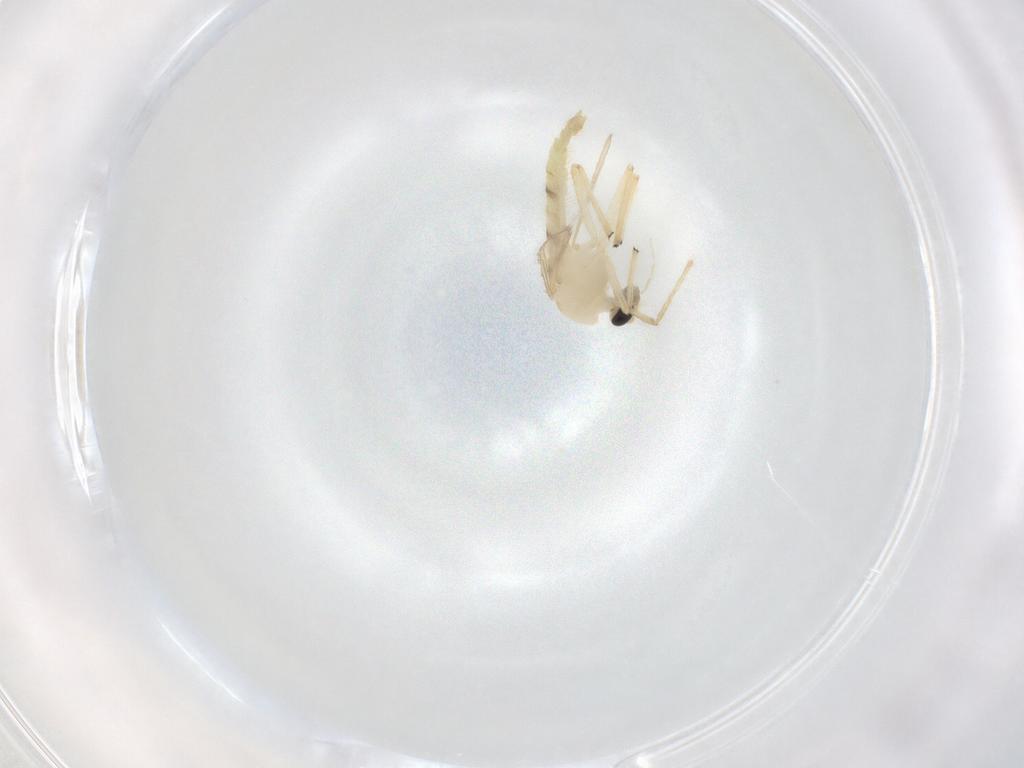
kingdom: Animalia
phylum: Arthropoda
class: Insecta
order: Diptera
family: Chironomidae
